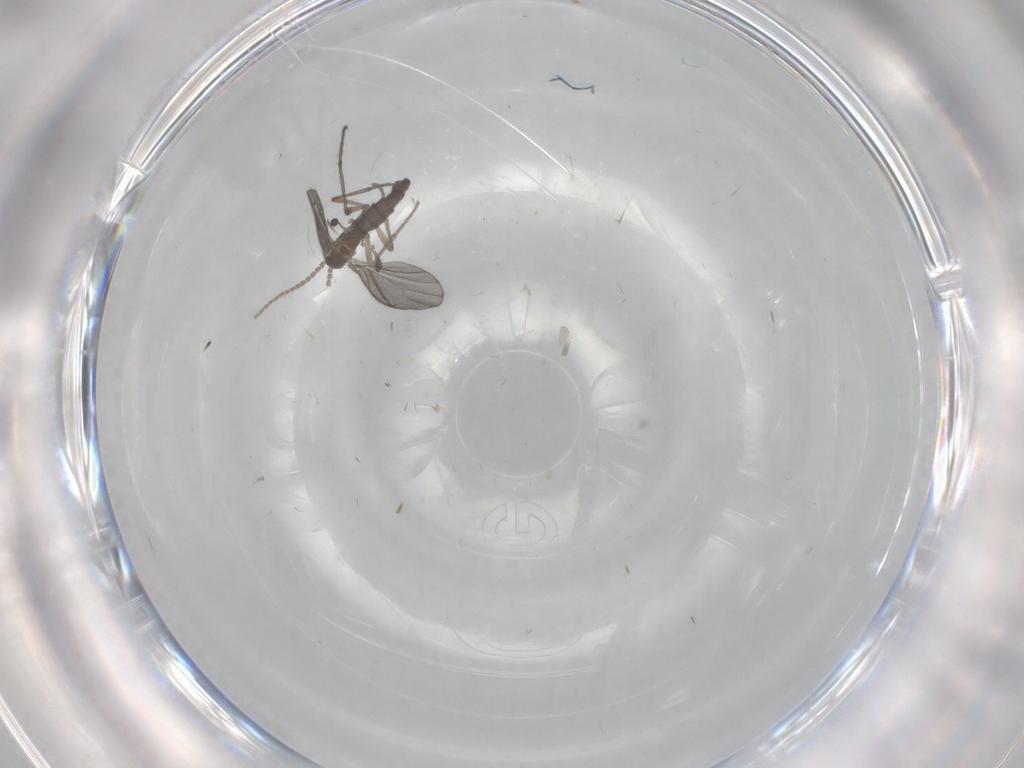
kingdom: Animalia
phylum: Arthropoda
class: Insecta
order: Diptera
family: Sciaridae
